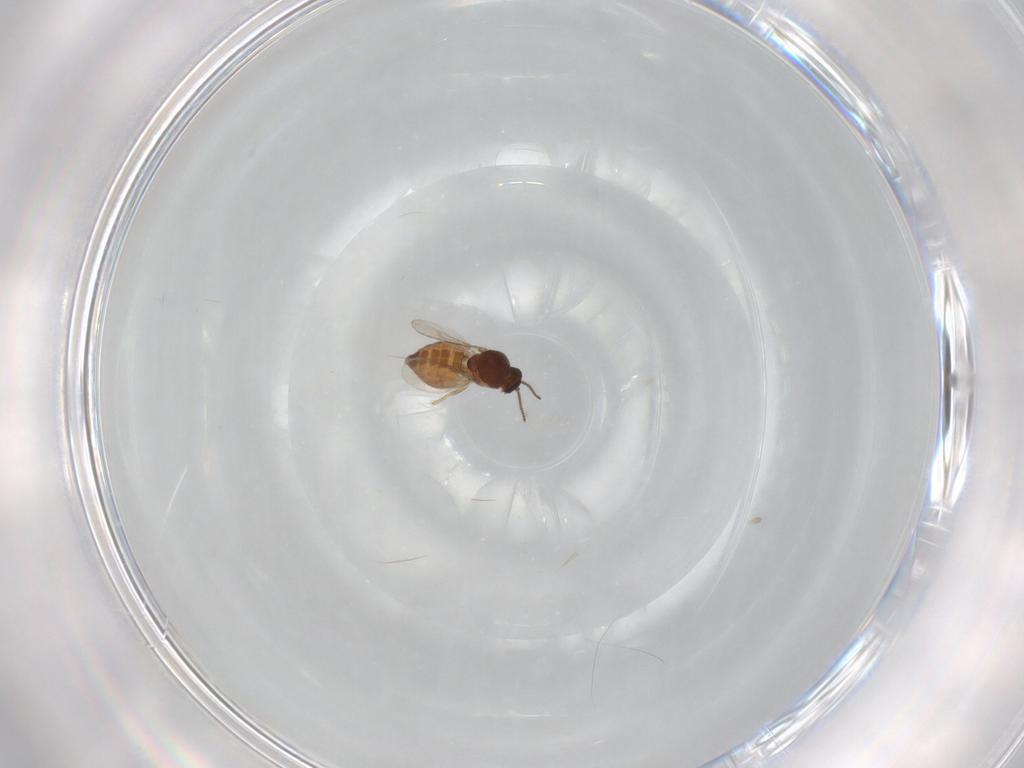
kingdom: Animalia
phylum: Arthropoda
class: Insecta
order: Diptera
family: Ceratopogonidae
